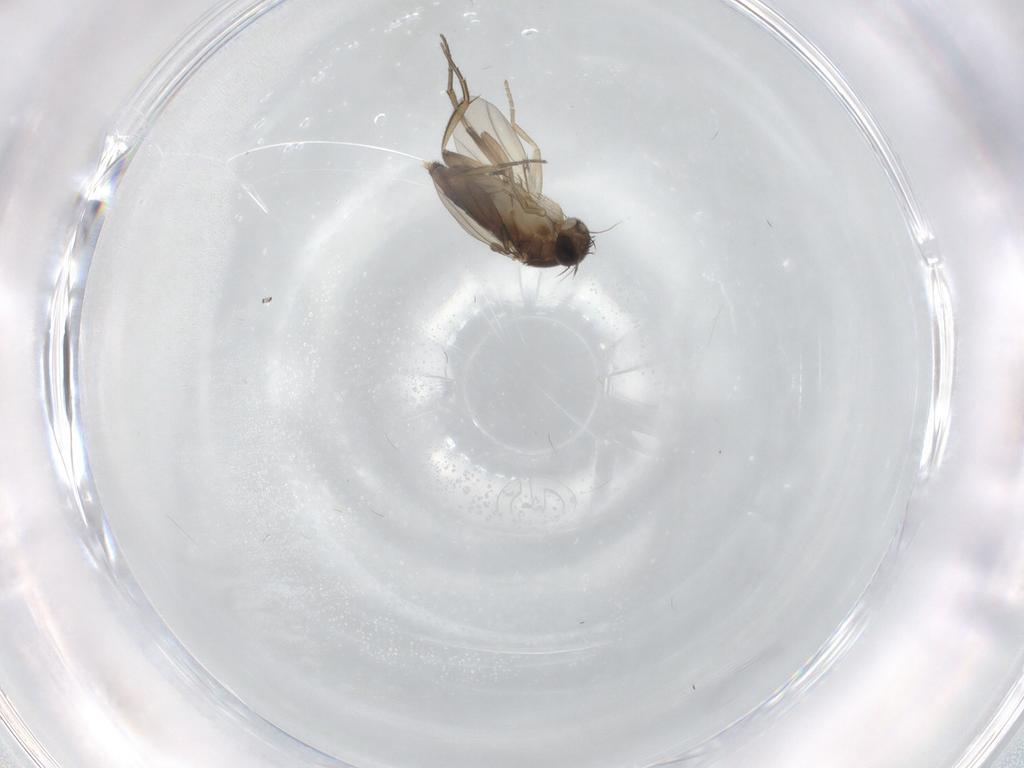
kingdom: Animalia
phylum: Arthropoda
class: Insecta
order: Diptera
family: Phoridae
